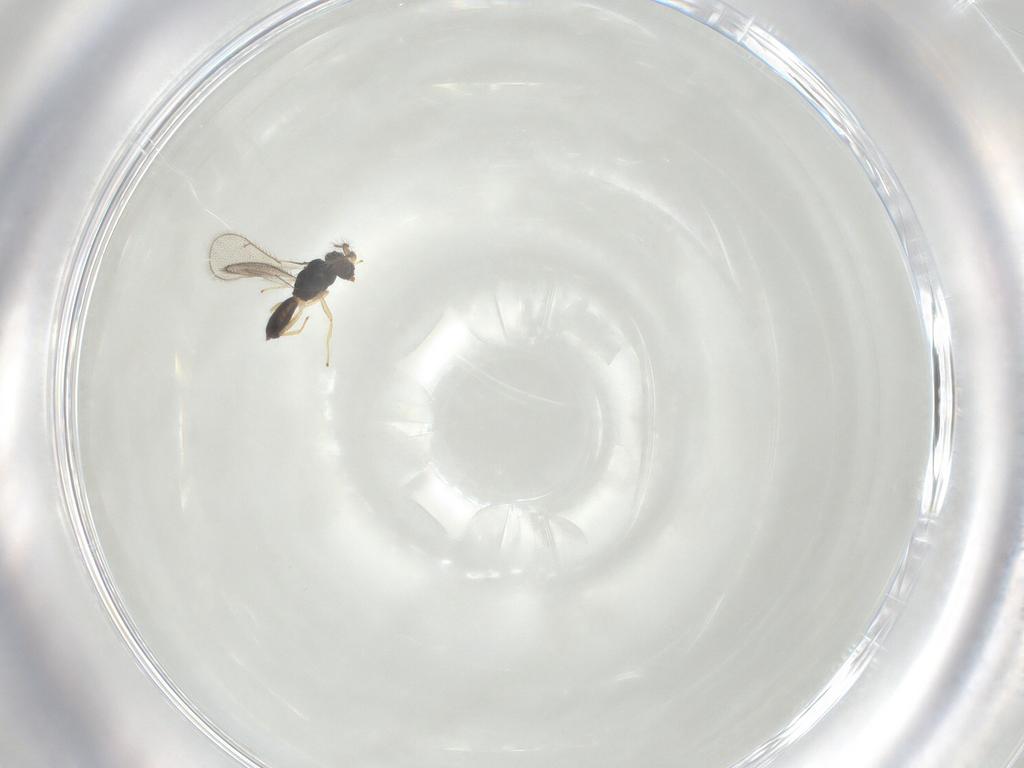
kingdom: Animalia
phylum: Arthropoda
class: Insecta
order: Hymenoptera
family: Eulophidae
